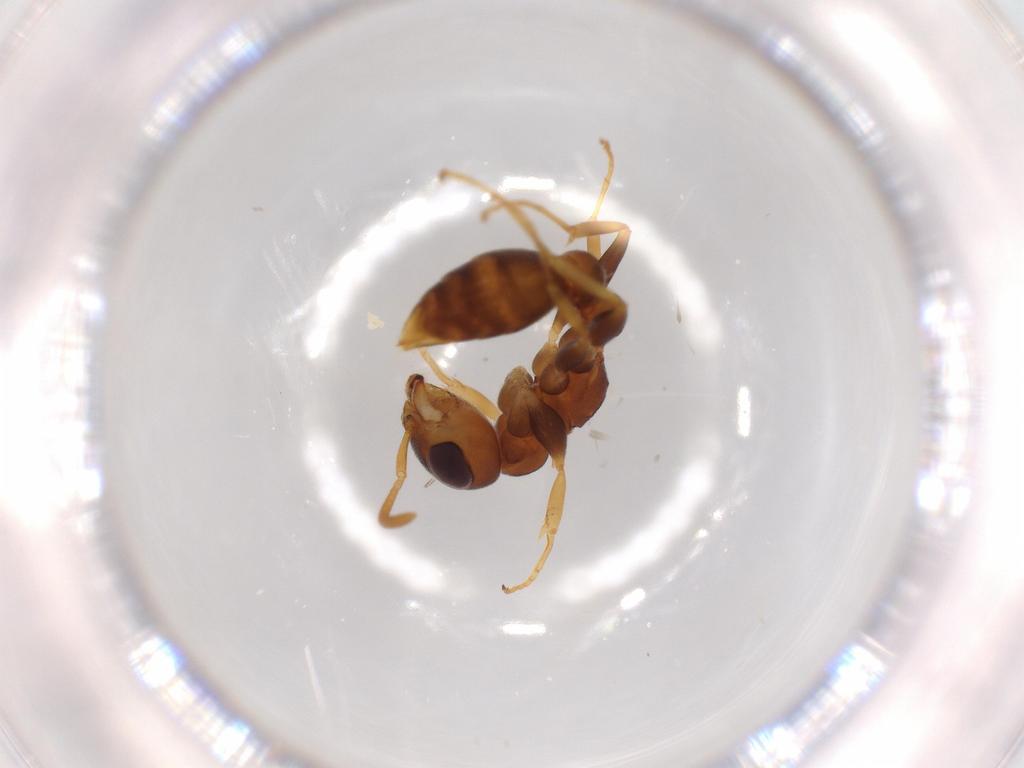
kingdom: Animalia
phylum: Arthropoda
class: Insecta
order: Hymenoptera
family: Formicidae
